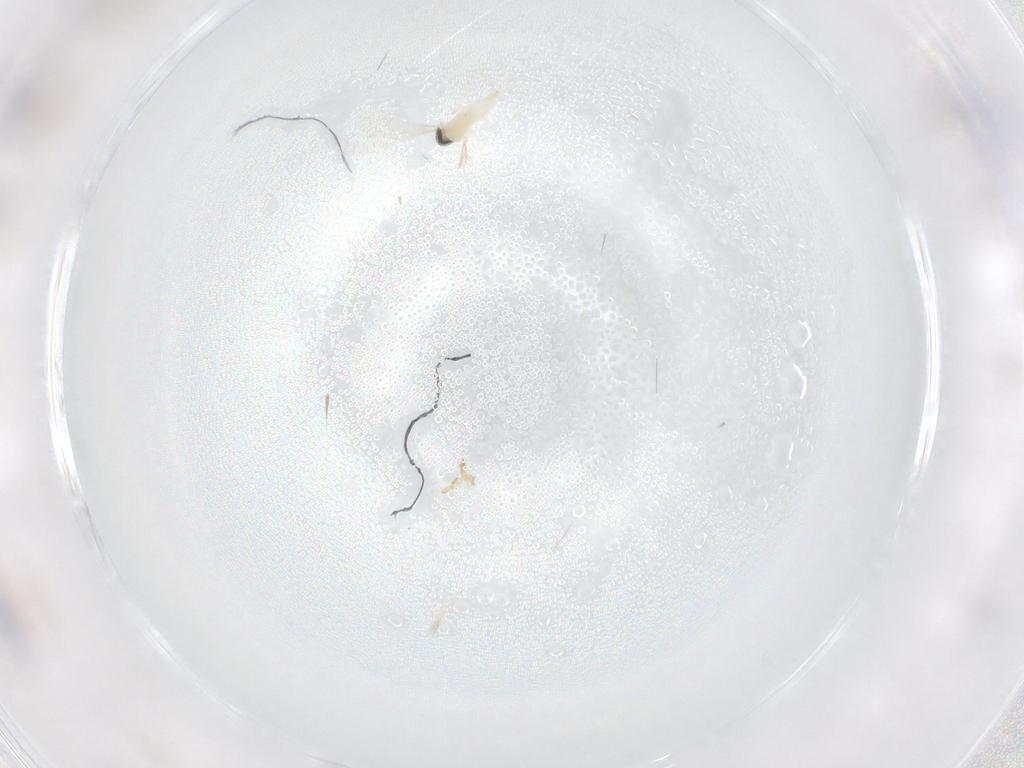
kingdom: Animalia
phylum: Arthropoda
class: Insecta
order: Diptera
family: Cecidomyiidae
